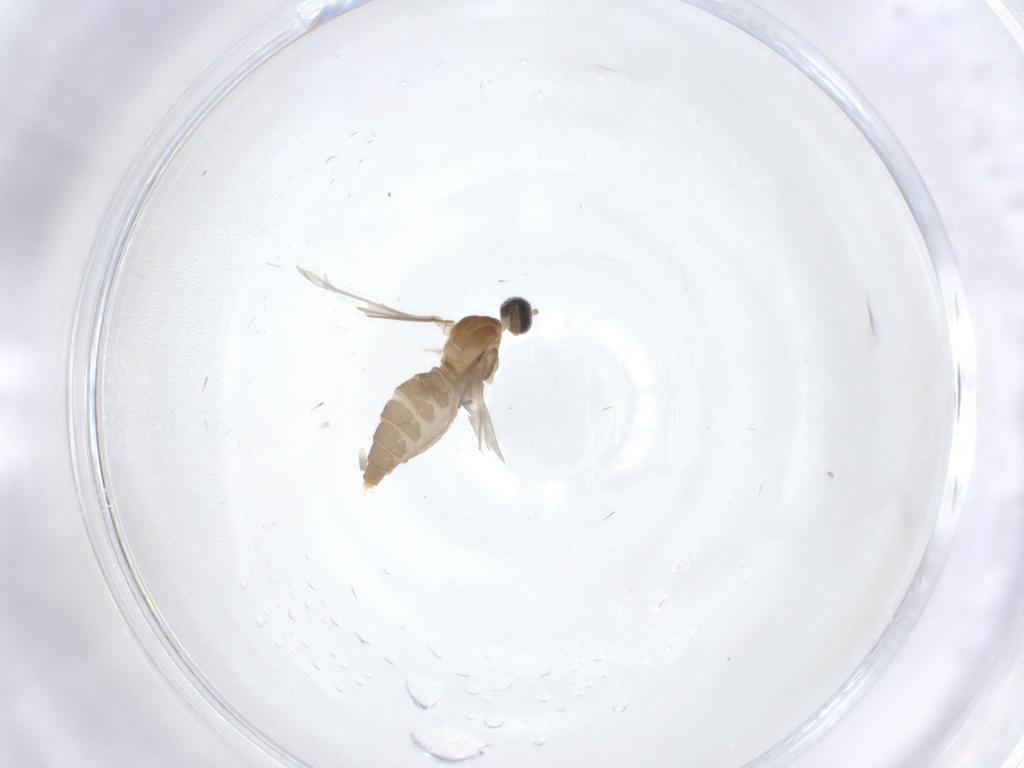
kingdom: Animalia
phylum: Arthropoda
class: Insecta
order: Diptera
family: Cecidomyiidae
